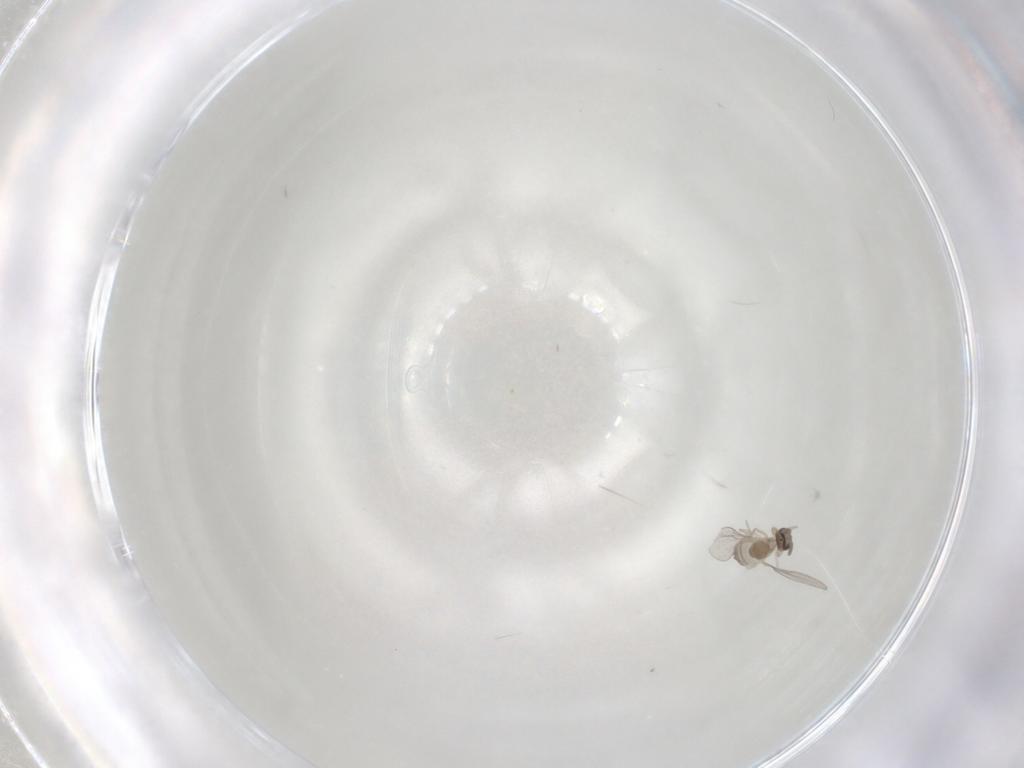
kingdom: Animalia
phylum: Arthropoda
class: Insecta
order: Diptera
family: Cecidomyiidae
